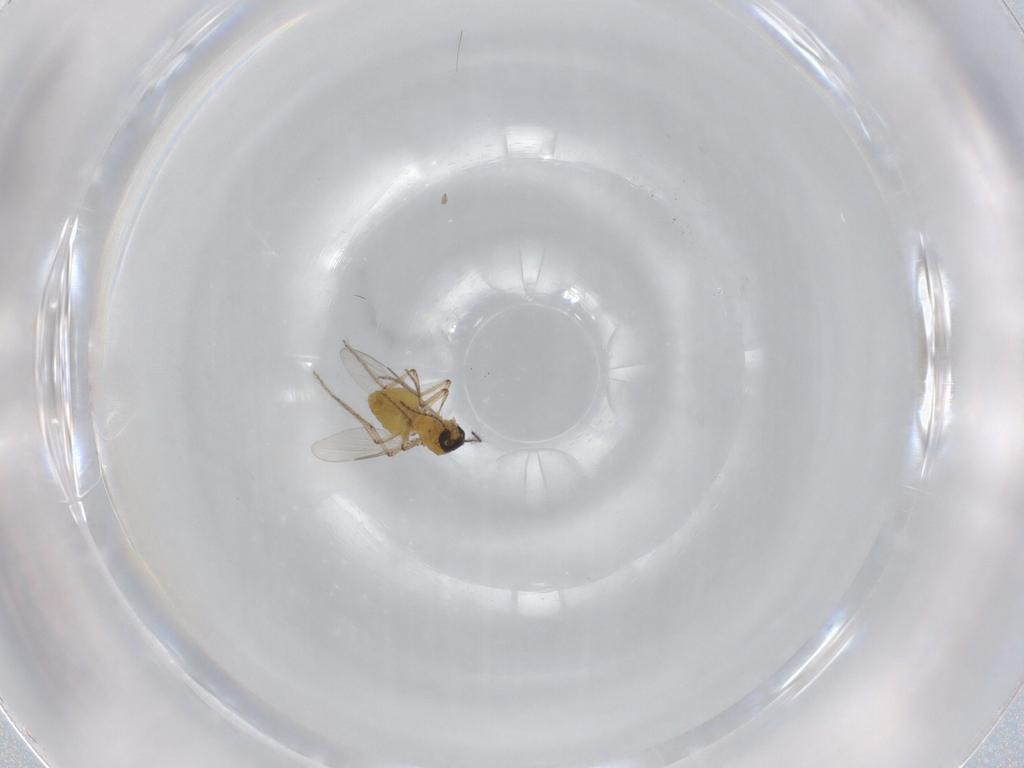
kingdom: Animalia
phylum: Arthropoda
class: Insecta
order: Diptera
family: Ceratopogonidae
